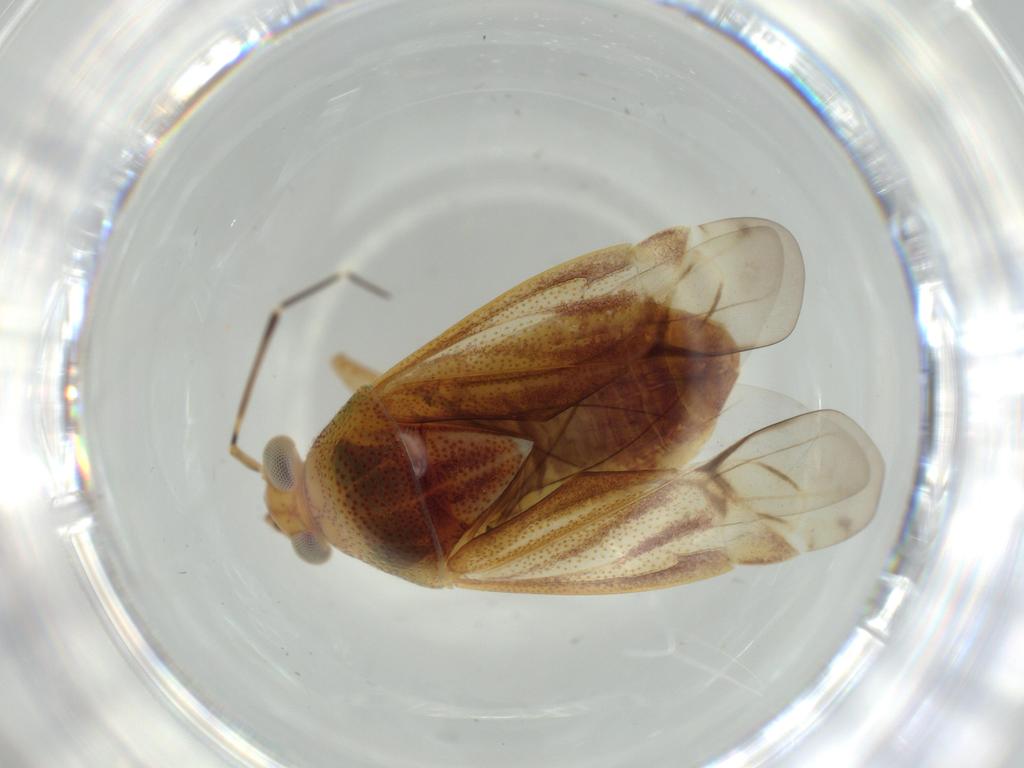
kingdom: Animalia
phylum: Arthropoda
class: Insecta
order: Hemiptera
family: Miridae
